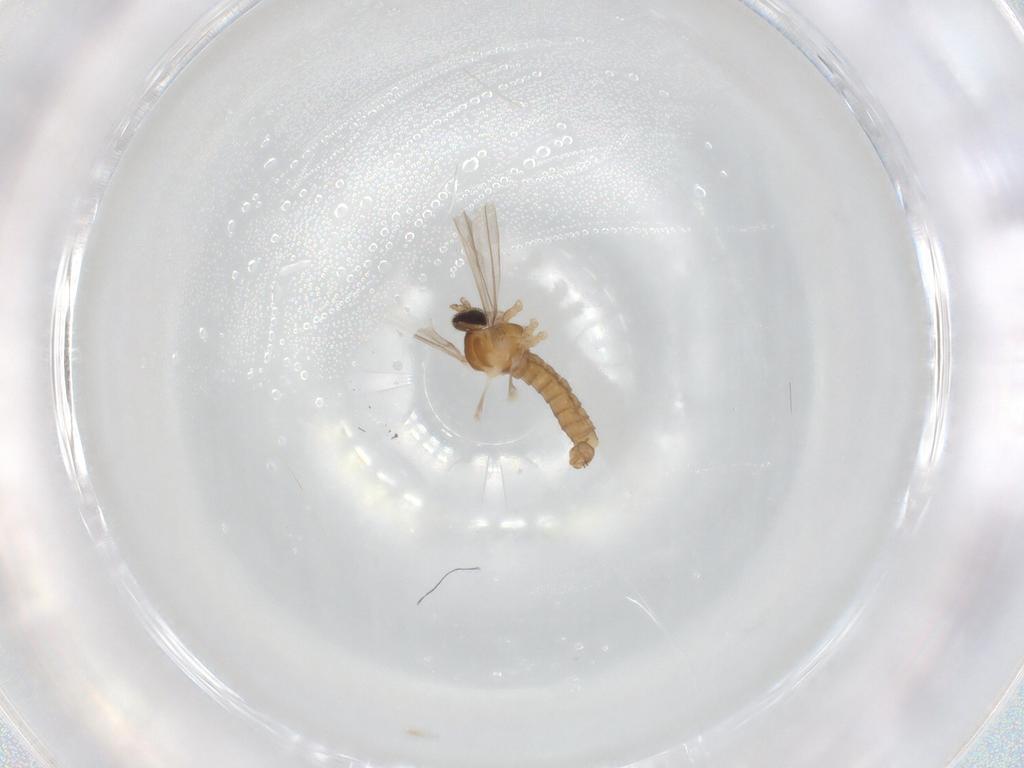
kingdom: Animalia
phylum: Arthropoda
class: Insecta
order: Diptera
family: Cecidomyiidae
